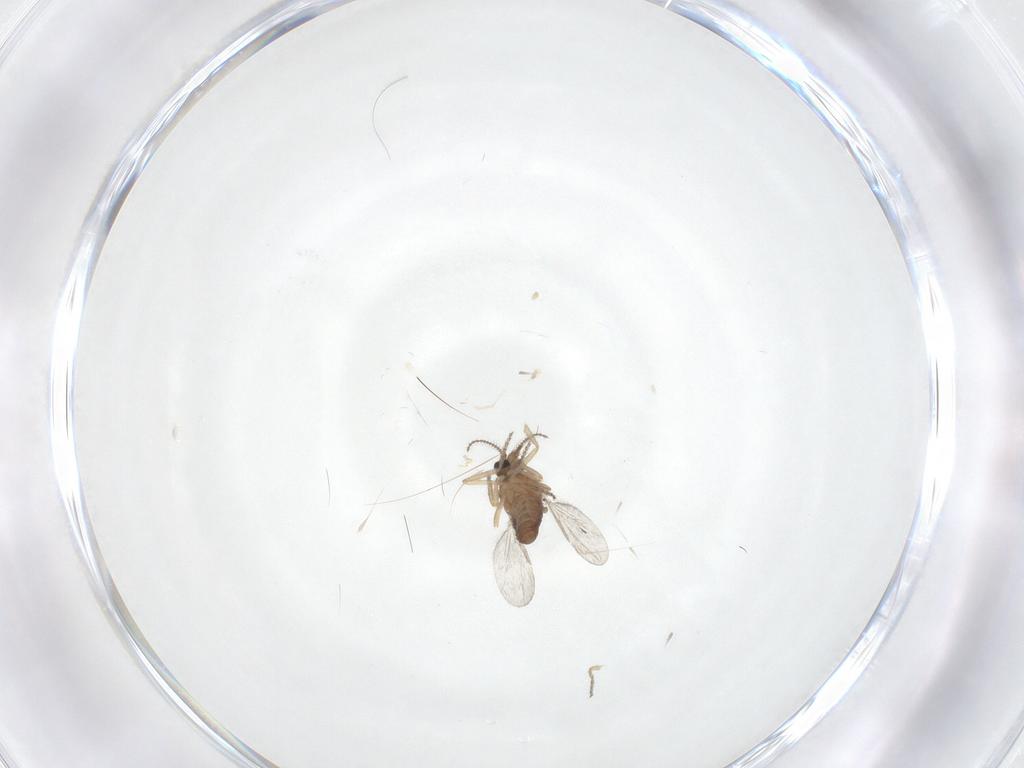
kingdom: Animalia
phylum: Arthropoda
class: Insecta
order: Diptera
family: Ceratopogonidae
